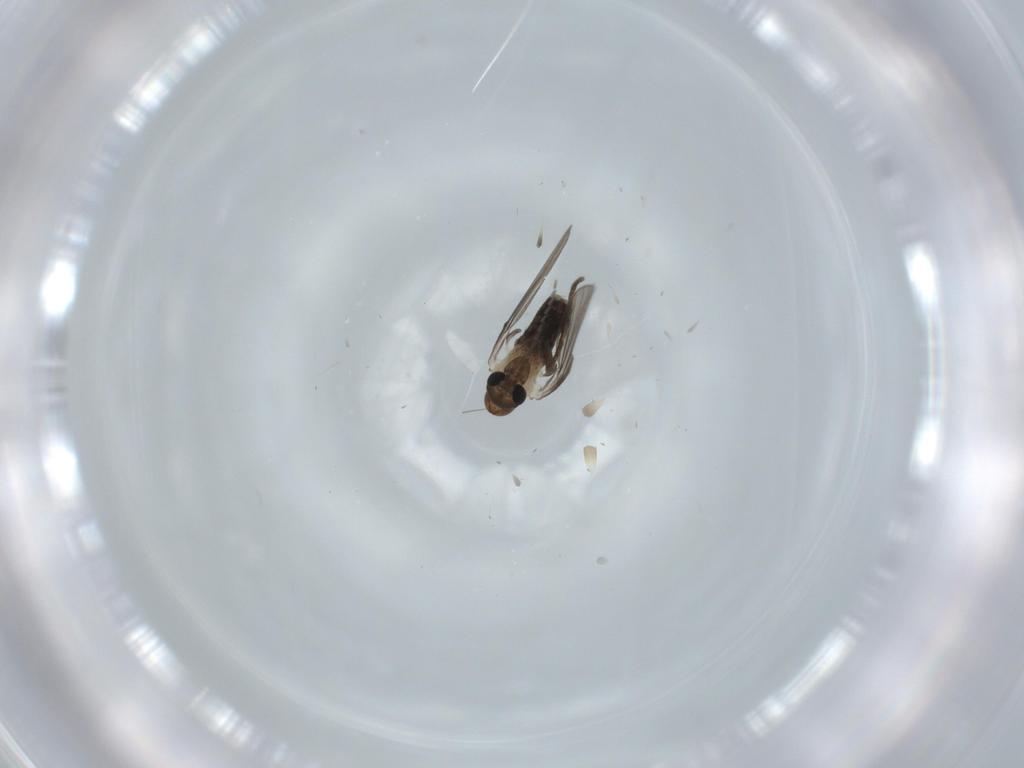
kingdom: Animalia
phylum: Arthropoda
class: Insecta
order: Diptera
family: Psychodidae
